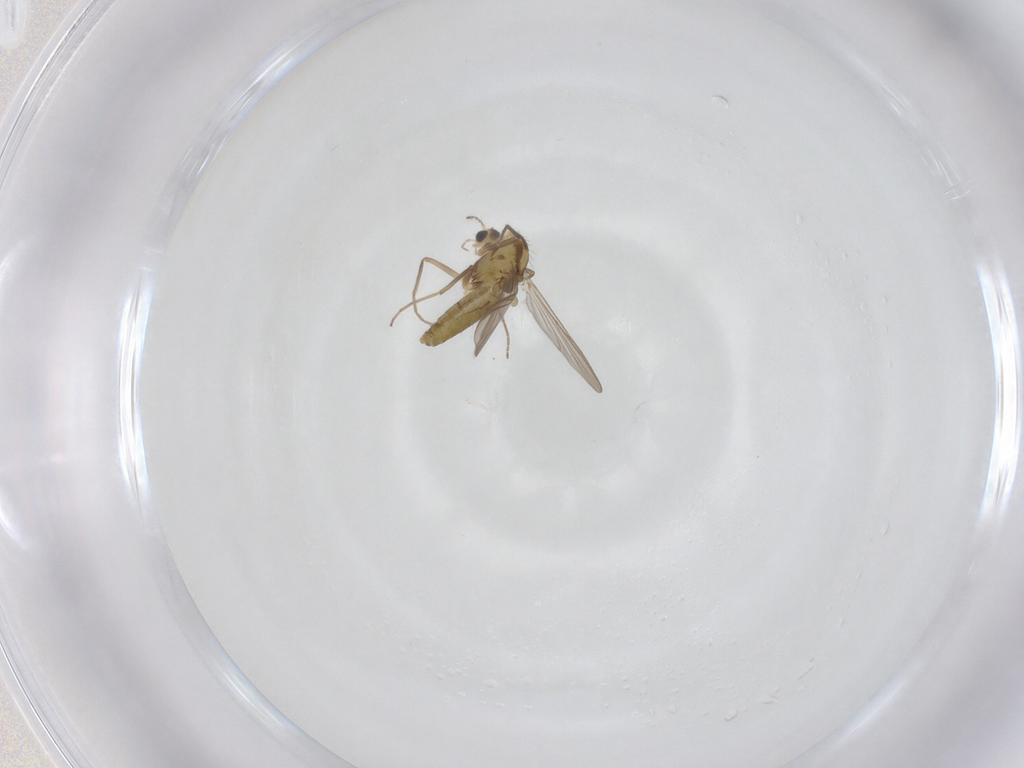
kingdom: Animalia
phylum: Arthropoda
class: Insecta
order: Diptera
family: Chironomidae
